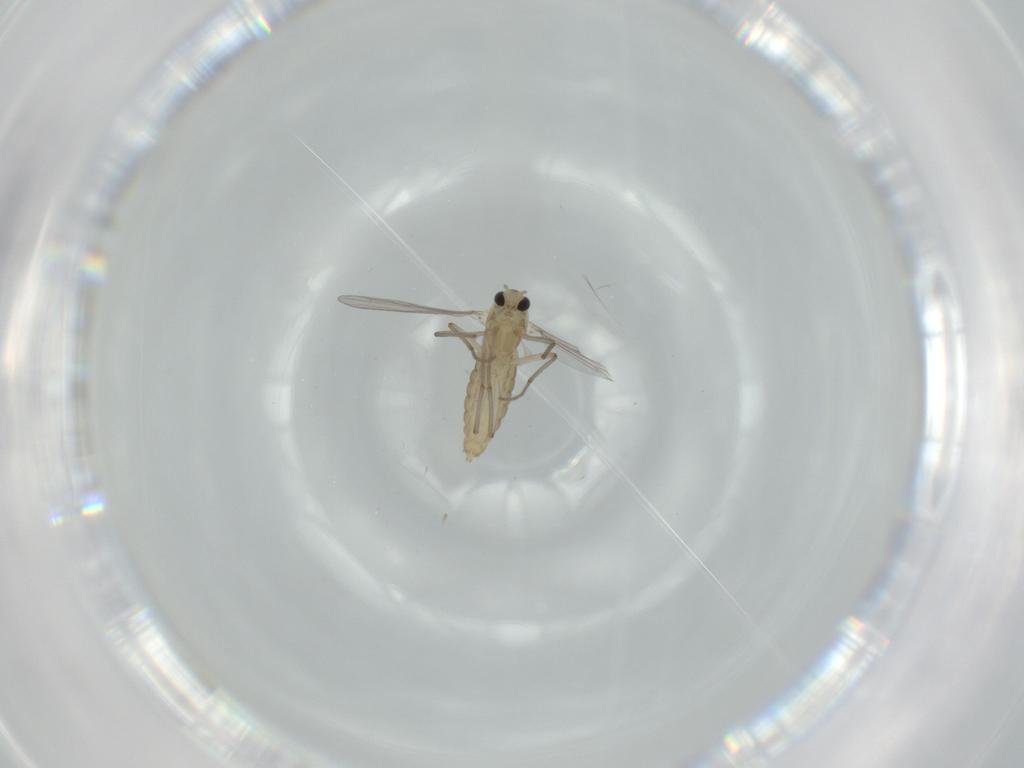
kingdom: Animalia
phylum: Arthropoda
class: Insecta
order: Diptera
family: Chironomidae
